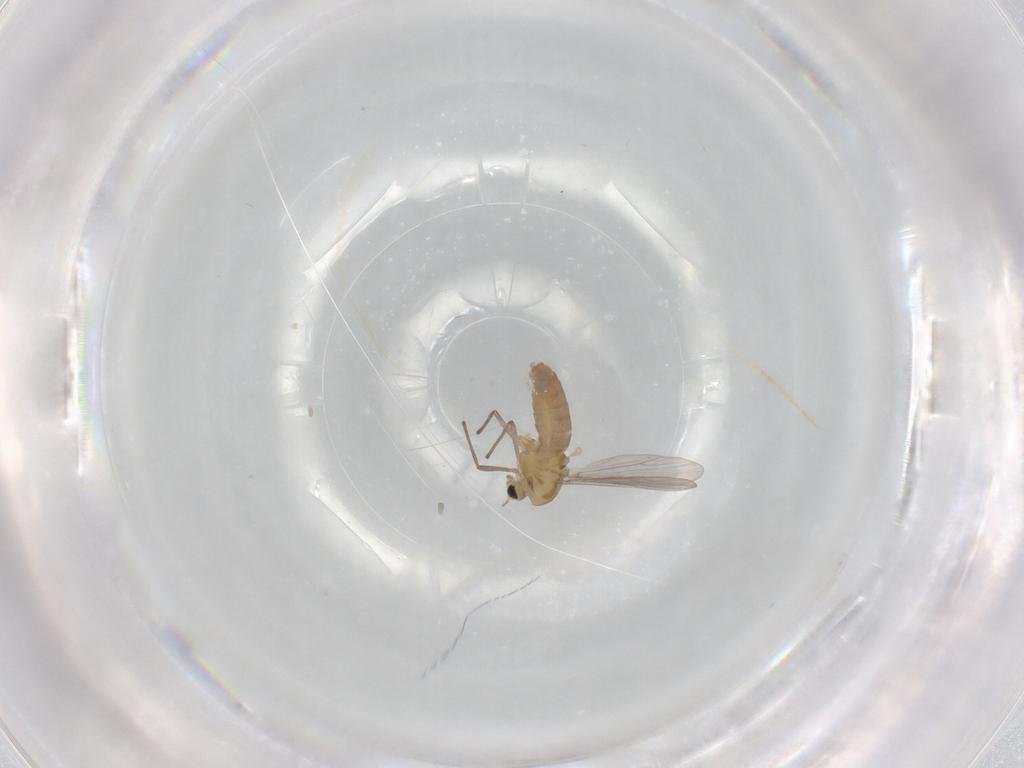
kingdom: Animalia
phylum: Arthropoda
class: Insecta
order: Diptera
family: Chironomidae
